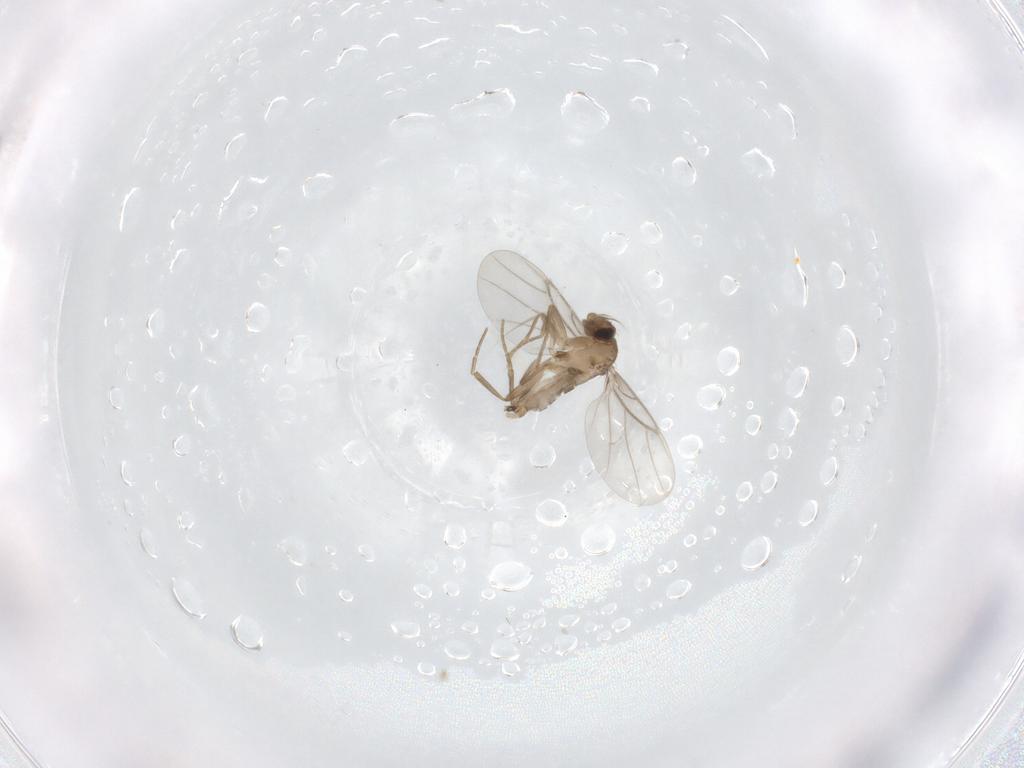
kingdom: Animalia
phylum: Arthropoda
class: Insecta
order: Diptera
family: Phoridae
